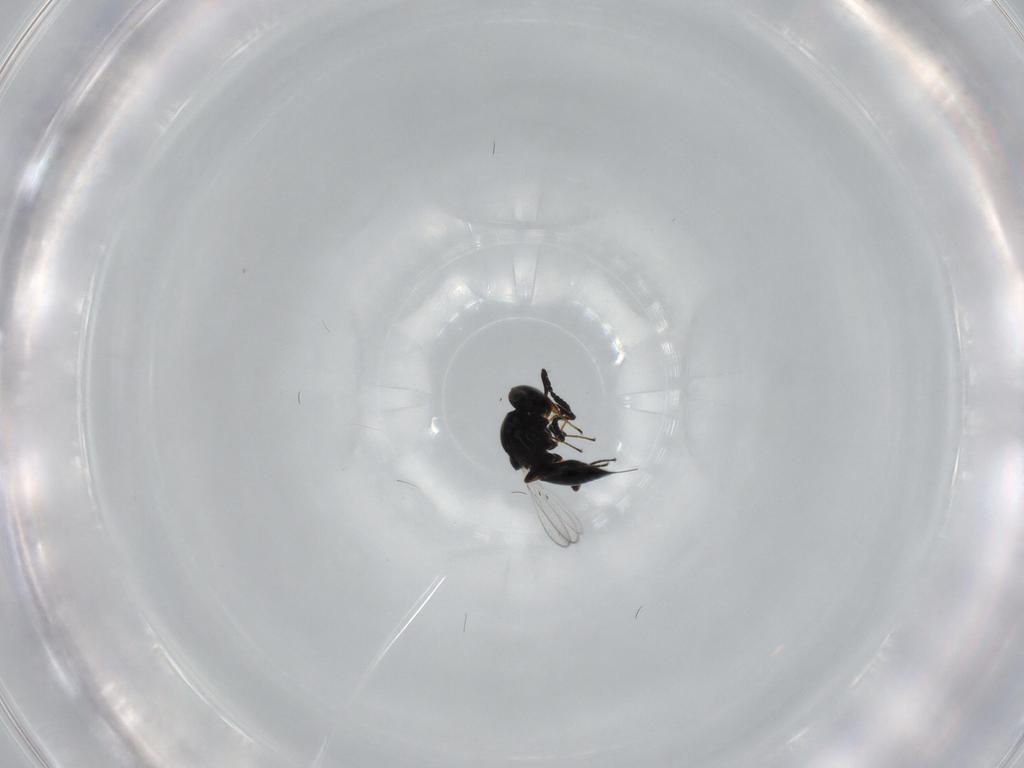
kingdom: Animalia
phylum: Arthropoda
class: Insecta
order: Hymenoptera
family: Platygastridae
